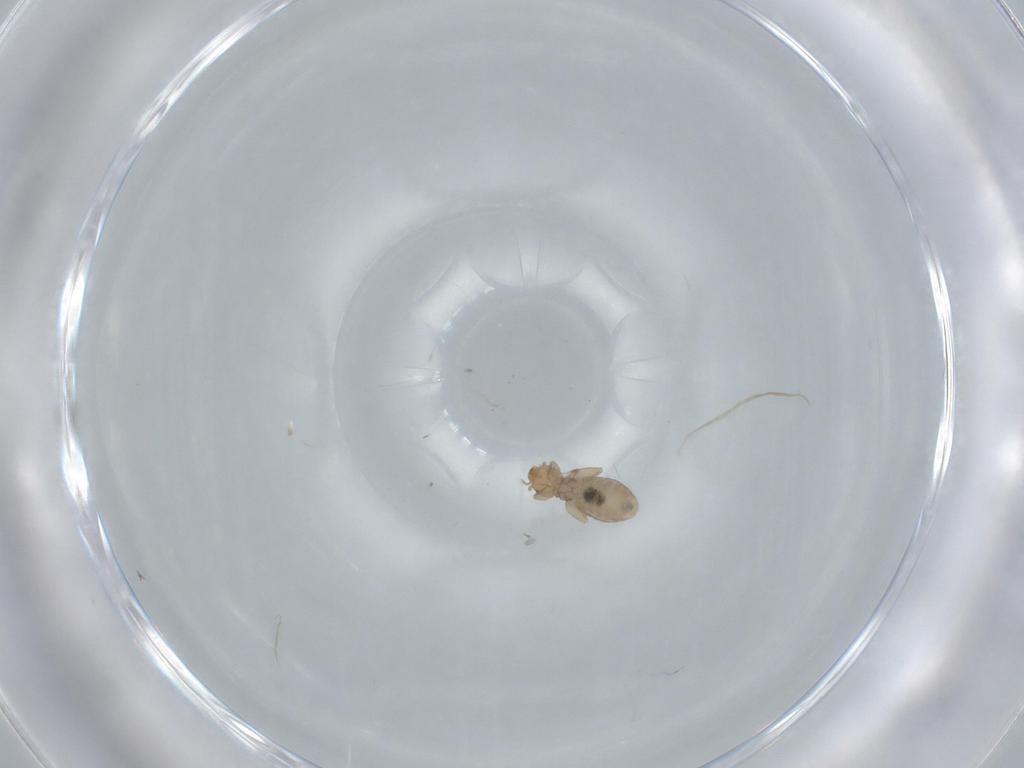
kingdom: Animalia
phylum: Arthropoda
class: Insecta
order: Psocodea
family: Liposcelididae
